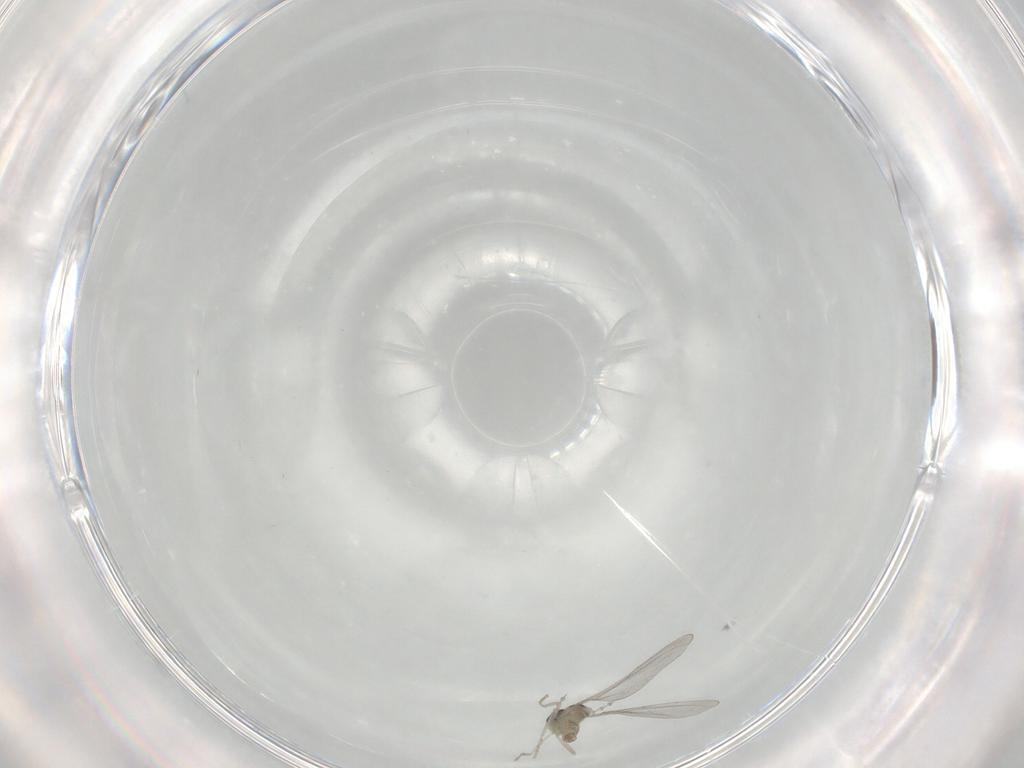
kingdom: Animalia
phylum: Arthropoda
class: Insecta
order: Diptera
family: Cecidomyiidae
